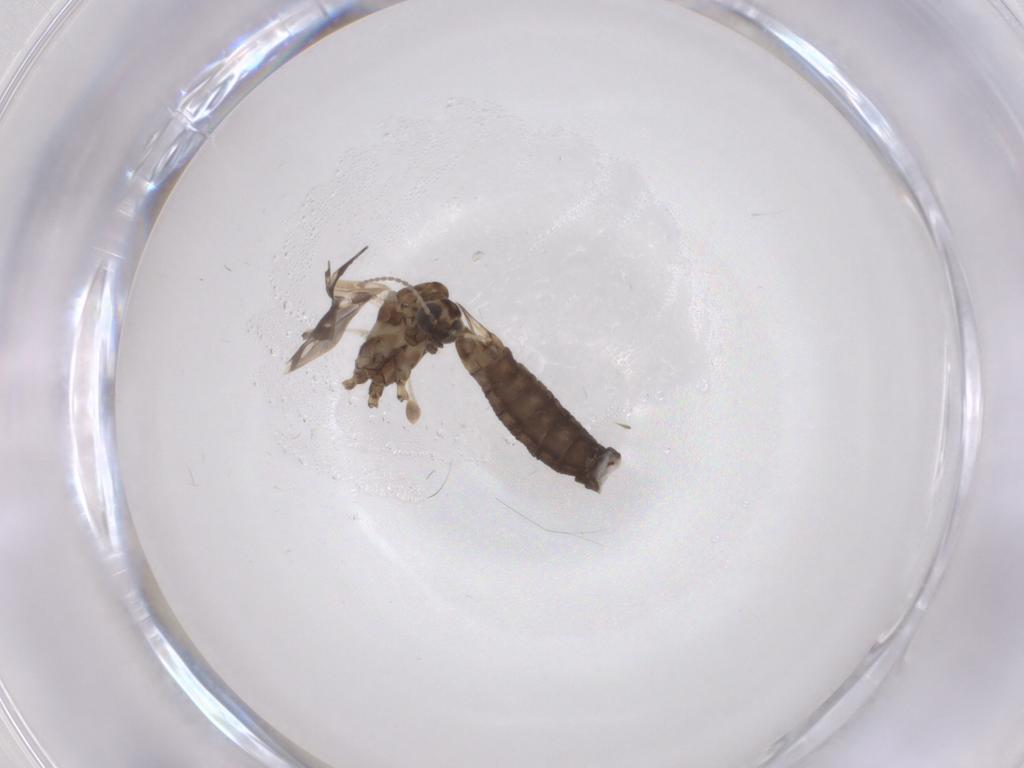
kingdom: Animalia
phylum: Arthropoda
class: Insecta
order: Diptera
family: Limoniidae
